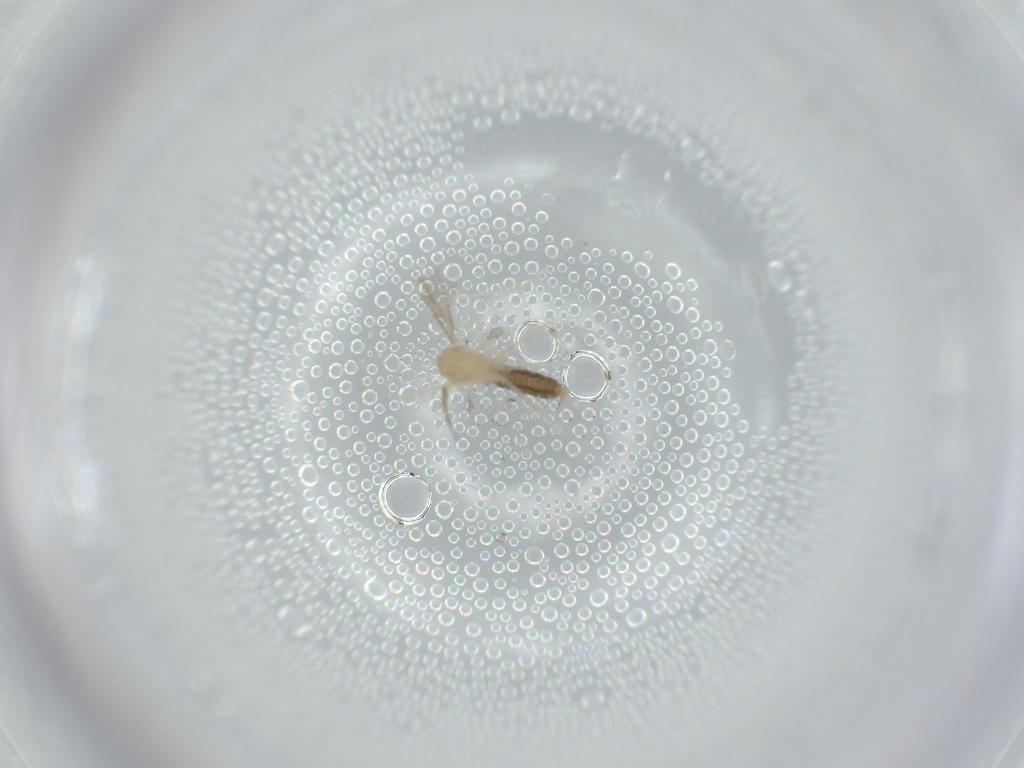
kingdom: Animalia
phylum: Arthropoda
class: Insecta
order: Diptera
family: Cecidomyiidae
